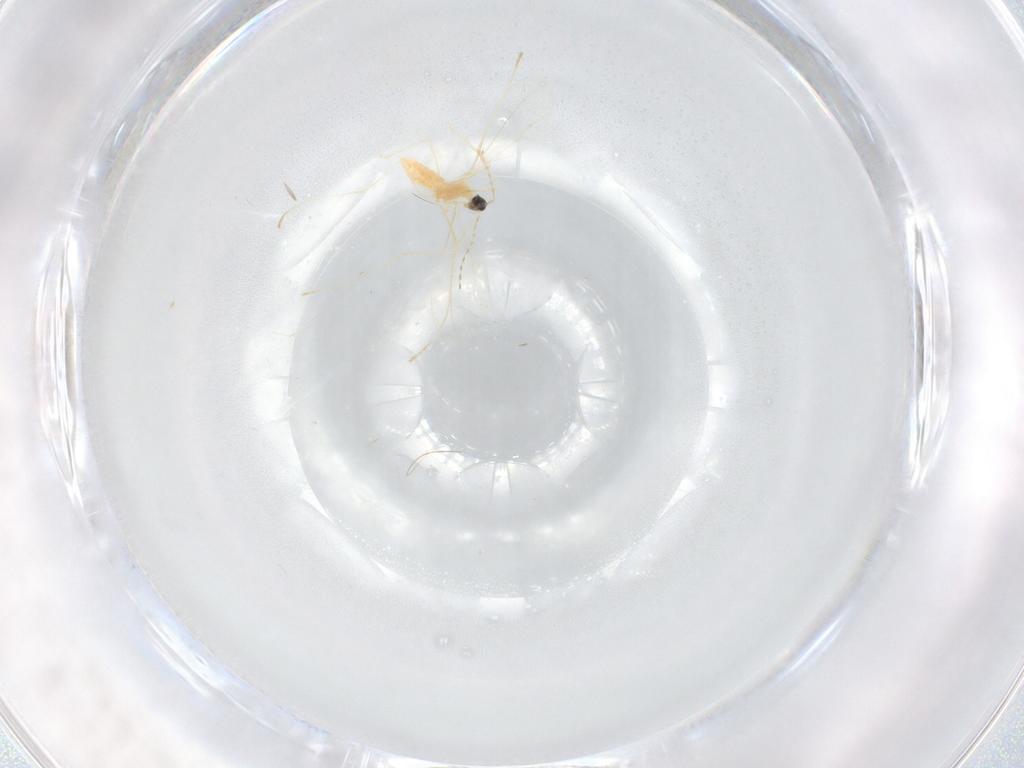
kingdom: Animalia
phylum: Arthropoda
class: Insecta
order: Diptera
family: Cecidomyiidae
